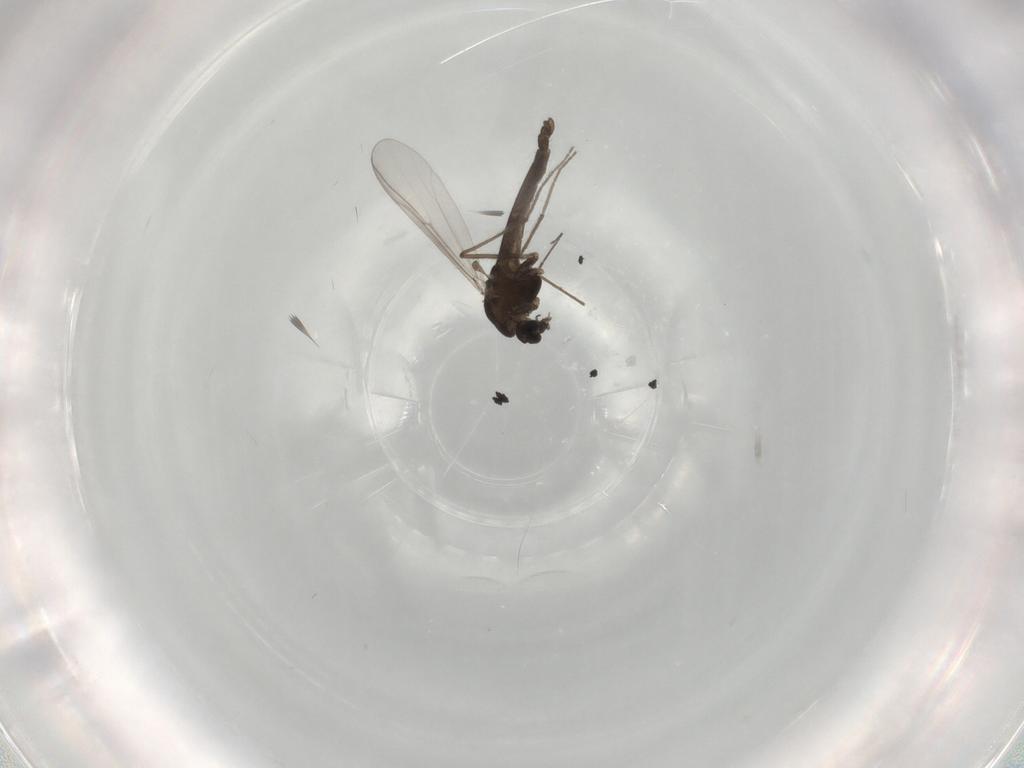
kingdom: Animalia
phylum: Arthropoda
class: Insecta
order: Diptera
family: Chironomidae
